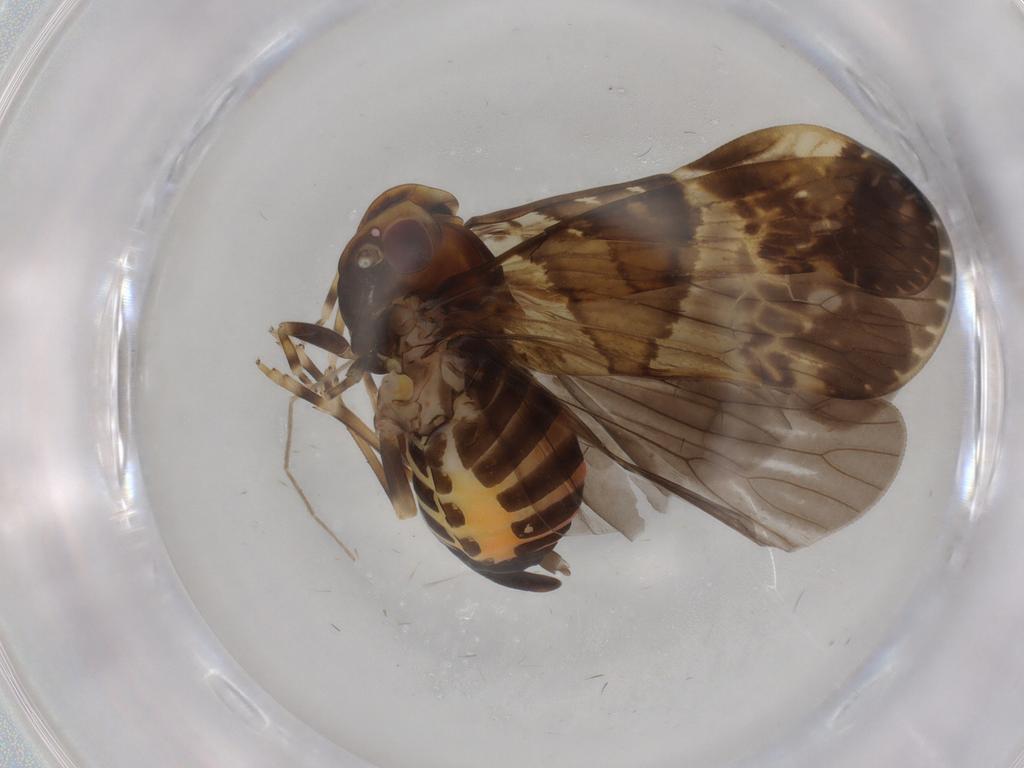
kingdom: Animalia
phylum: Arthropoda
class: Insecta
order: Hemiptera
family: Cixiidae
